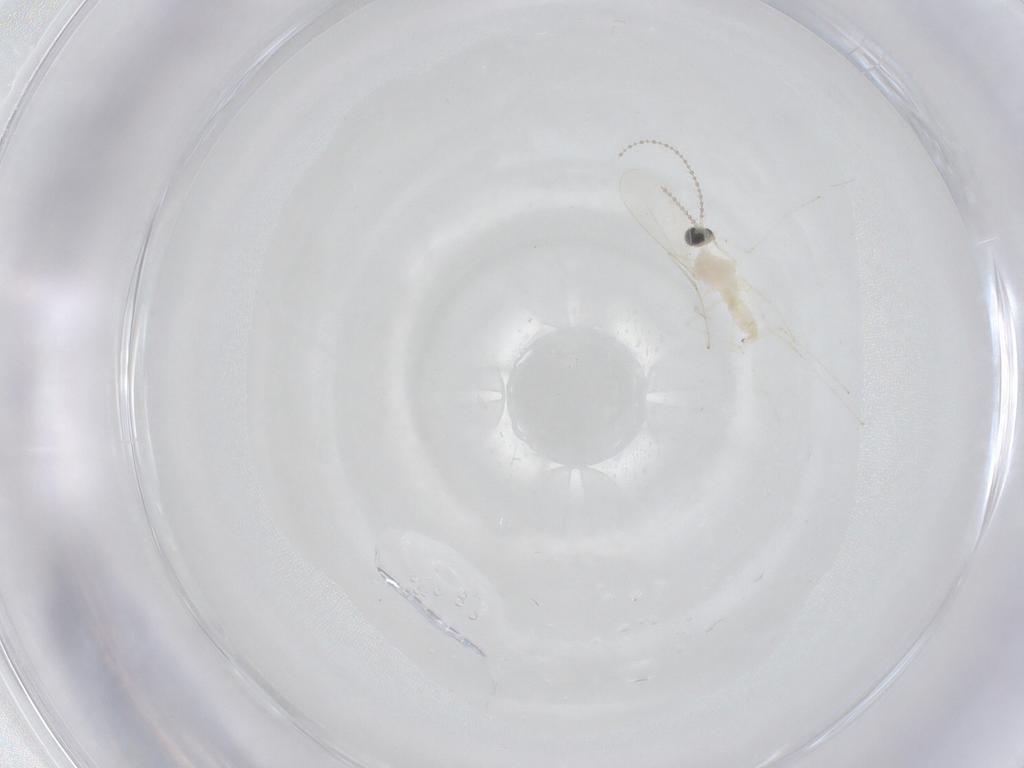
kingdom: Animalia
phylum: Arthropoda
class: Insecta
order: Diptera
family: Cecidomyiidae
